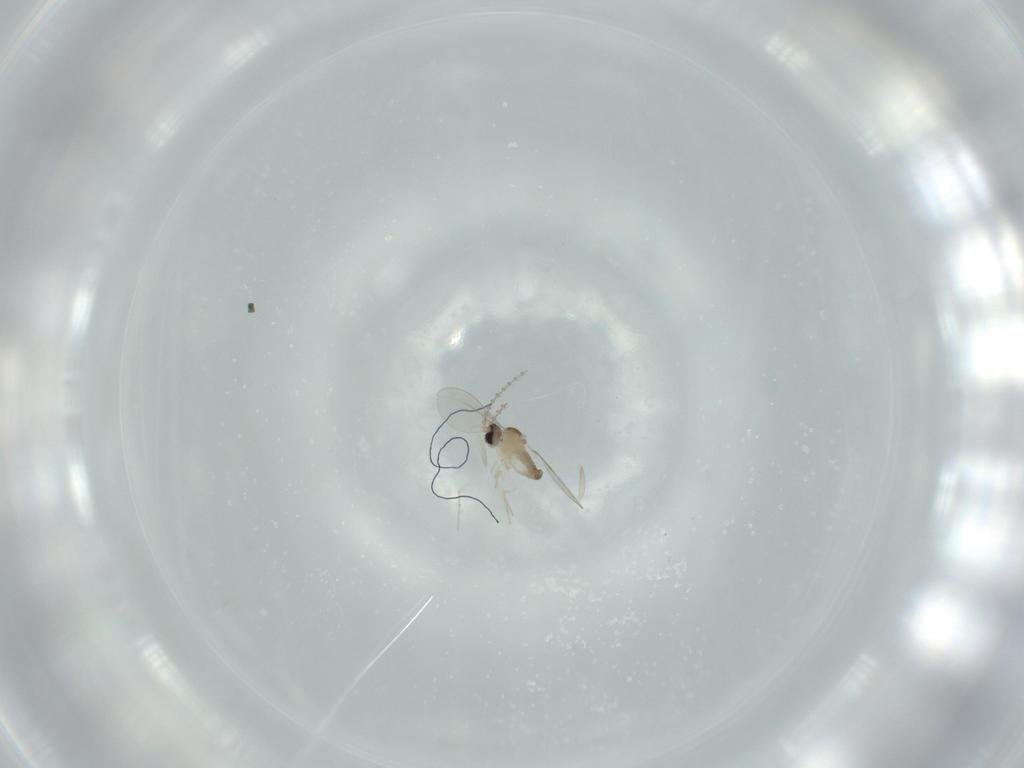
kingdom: Animalia
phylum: Arthropoda
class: Insecta
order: Diptera
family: Cecidomyiidae
